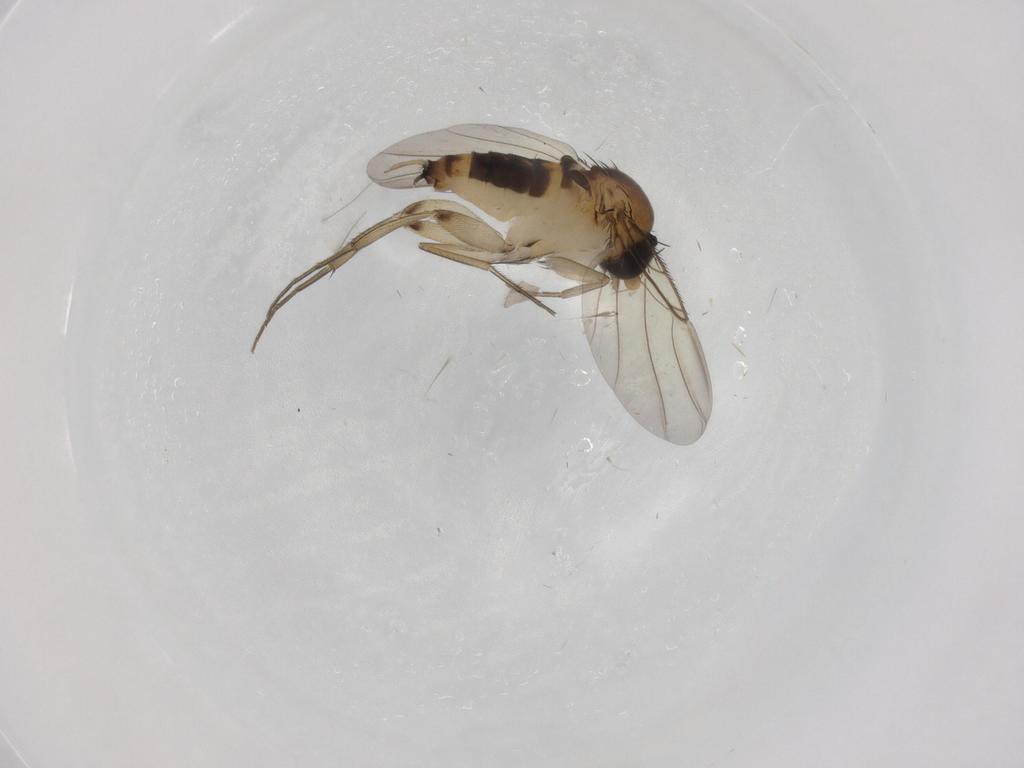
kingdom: Animalia
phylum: Arthropoda
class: Insecta
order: Diptera
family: Phoridae
